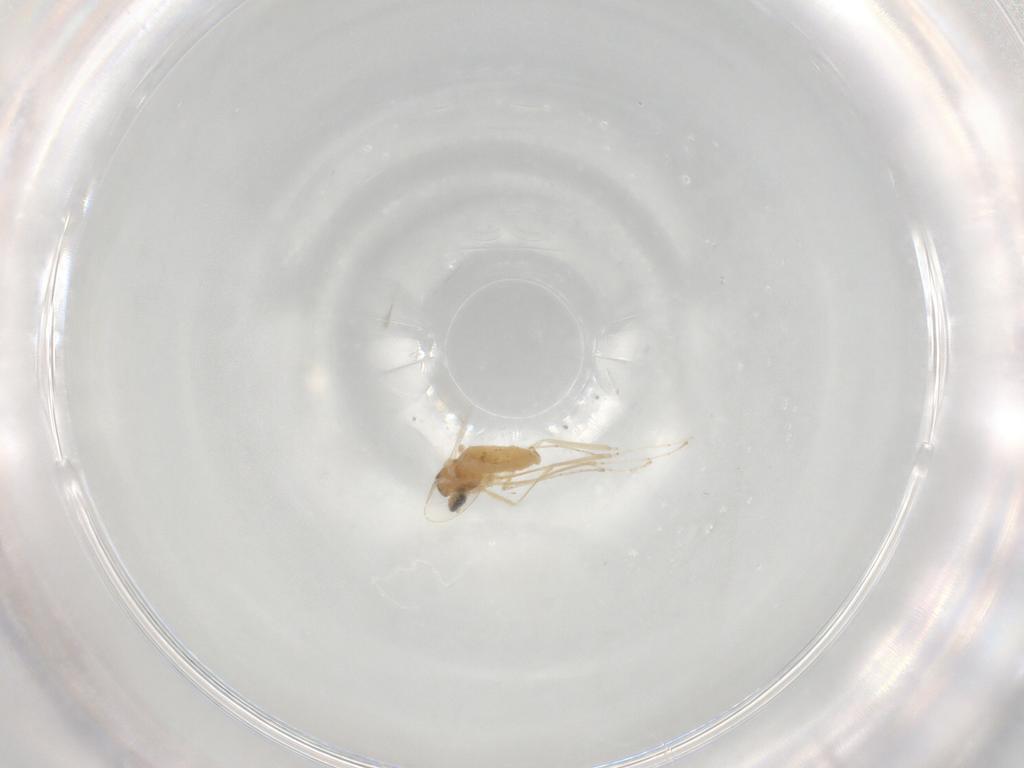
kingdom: Animalia
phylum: Arthropoda
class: Insecta
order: Diptera
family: Cecidomyiidae
